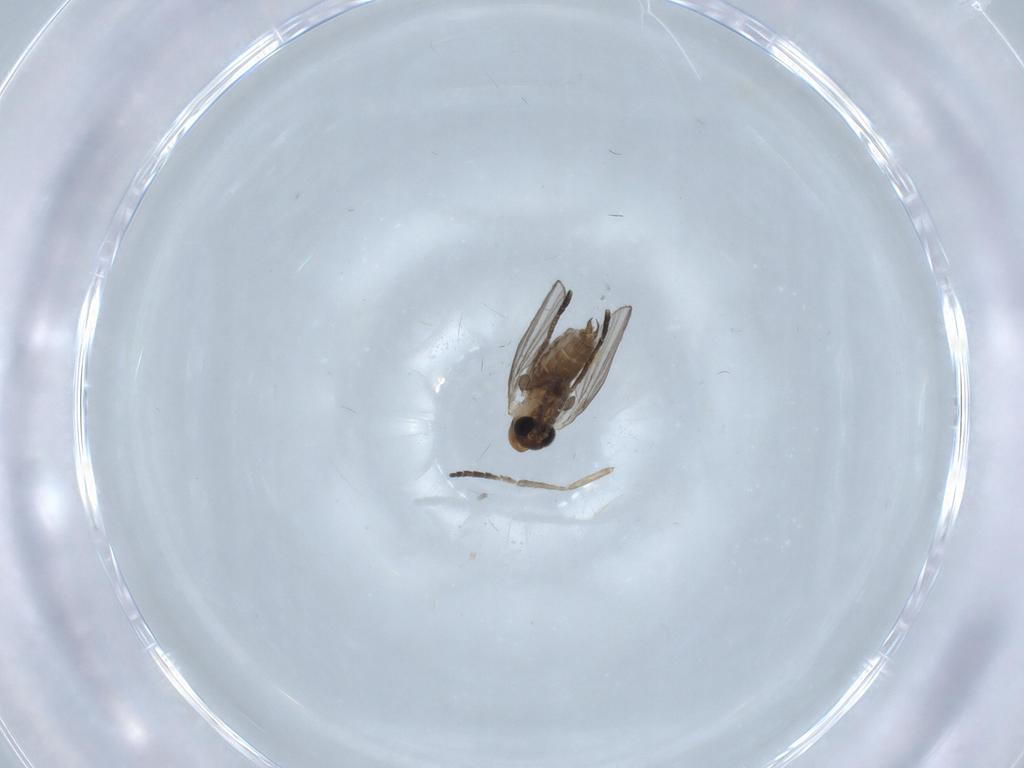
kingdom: Animalia
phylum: Arthropoda
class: Insecta
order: Diptera
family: Psychodidae
